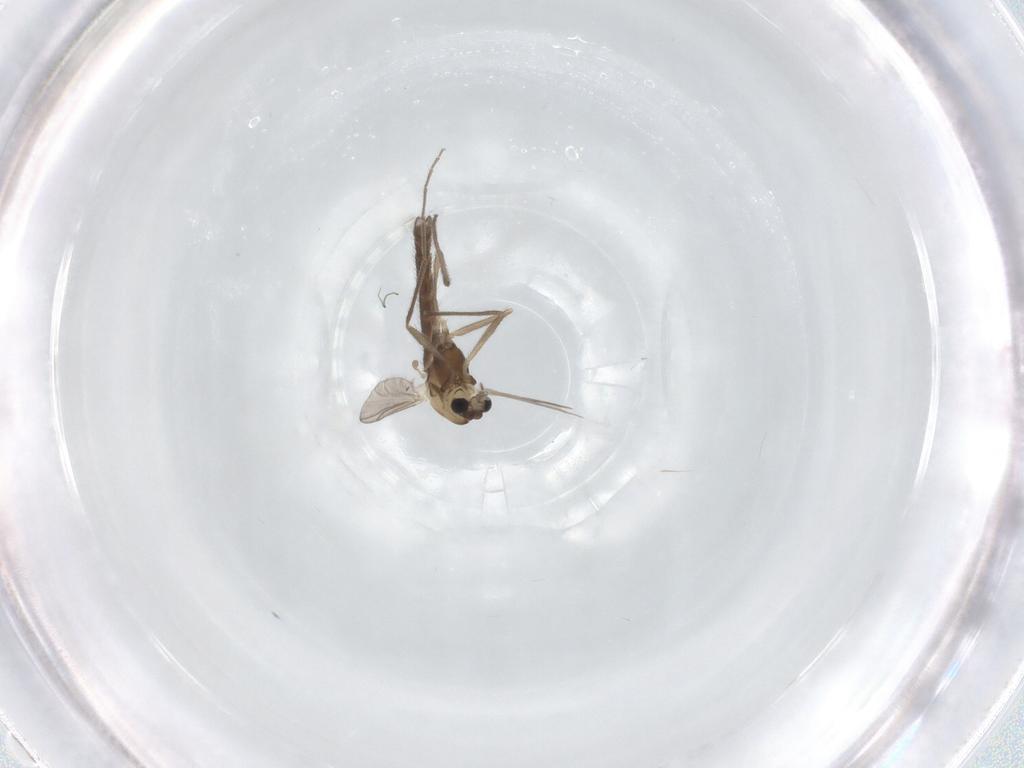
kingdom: Animalia
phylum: Arthropoda
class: Insecta
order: Diptera
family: Chironomidae
